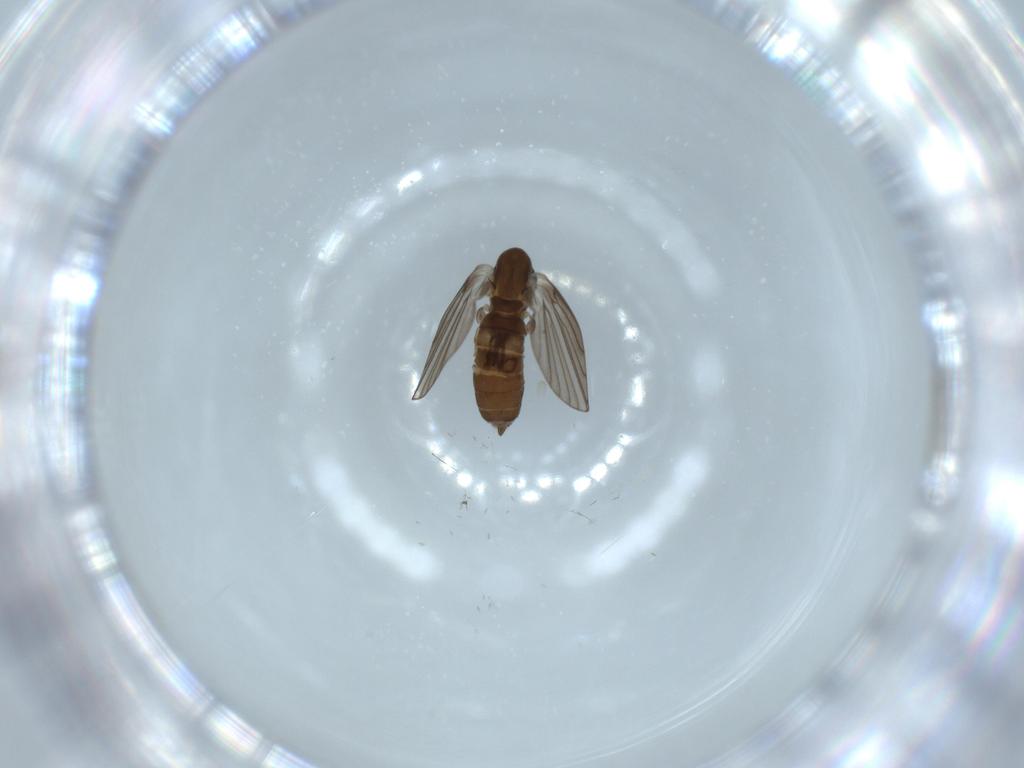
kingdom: Animalia
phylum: Arthropoda
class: Insecta
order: Diptera
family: Psychodidae
